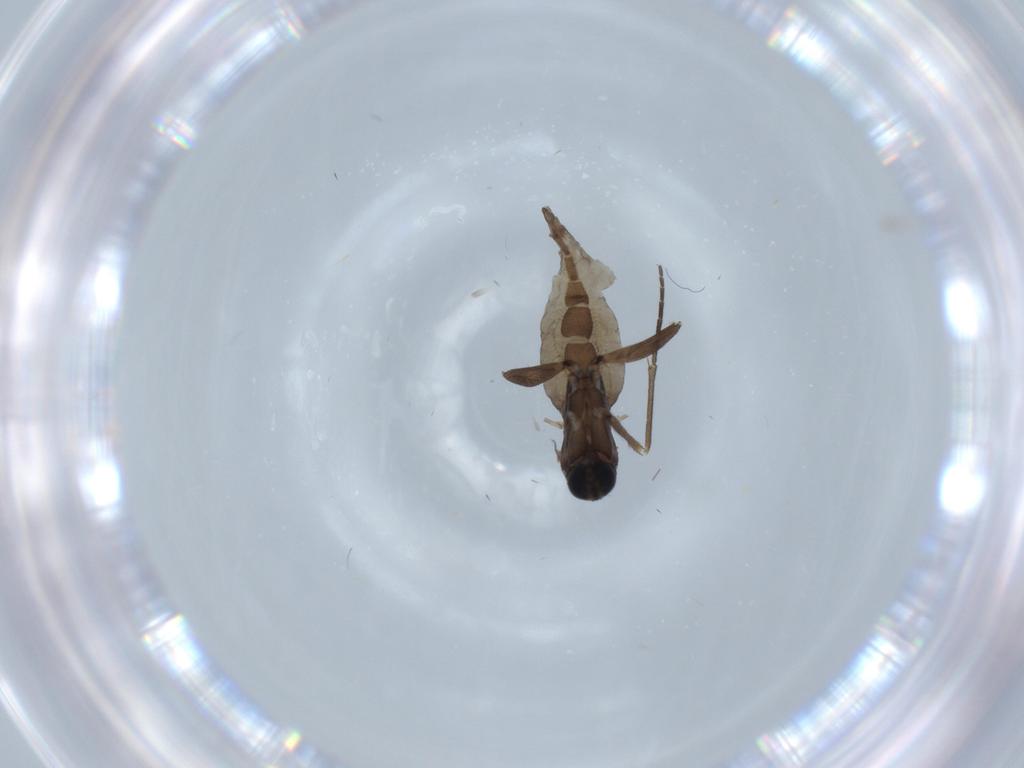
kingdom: Animalia
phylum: Arthropoda
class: Insecta
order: Diptera
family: Sciaridae
